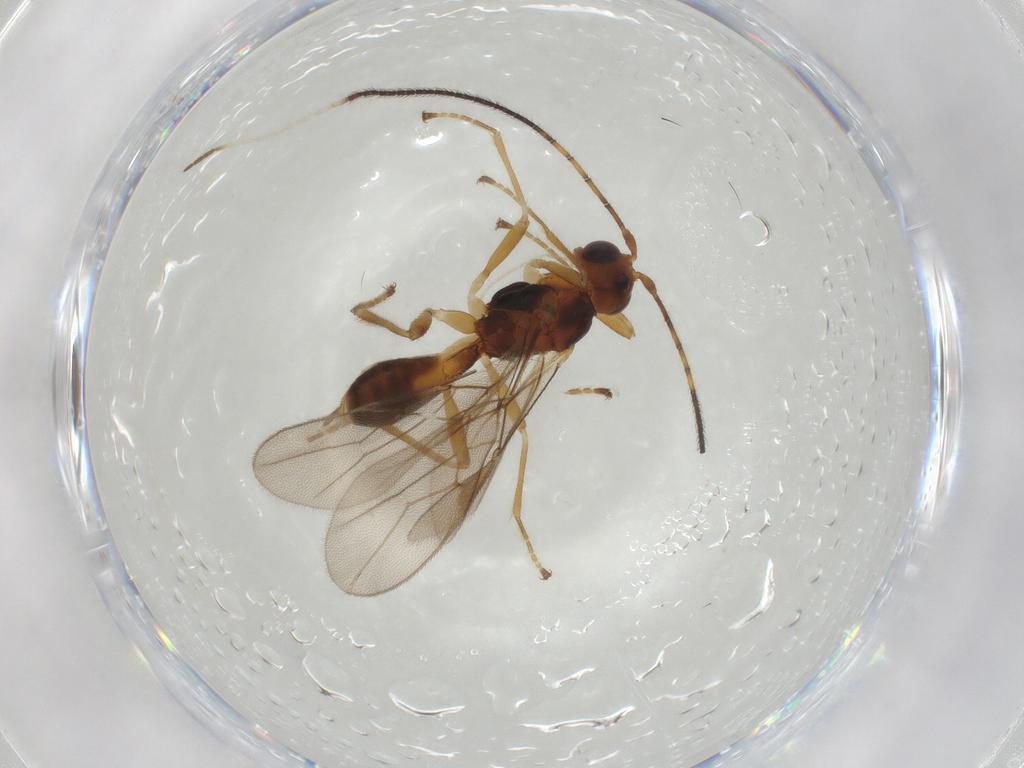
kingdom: Animalia
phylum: Arthropoda
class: Insecta
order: Hymenoptera
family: Braconidae
